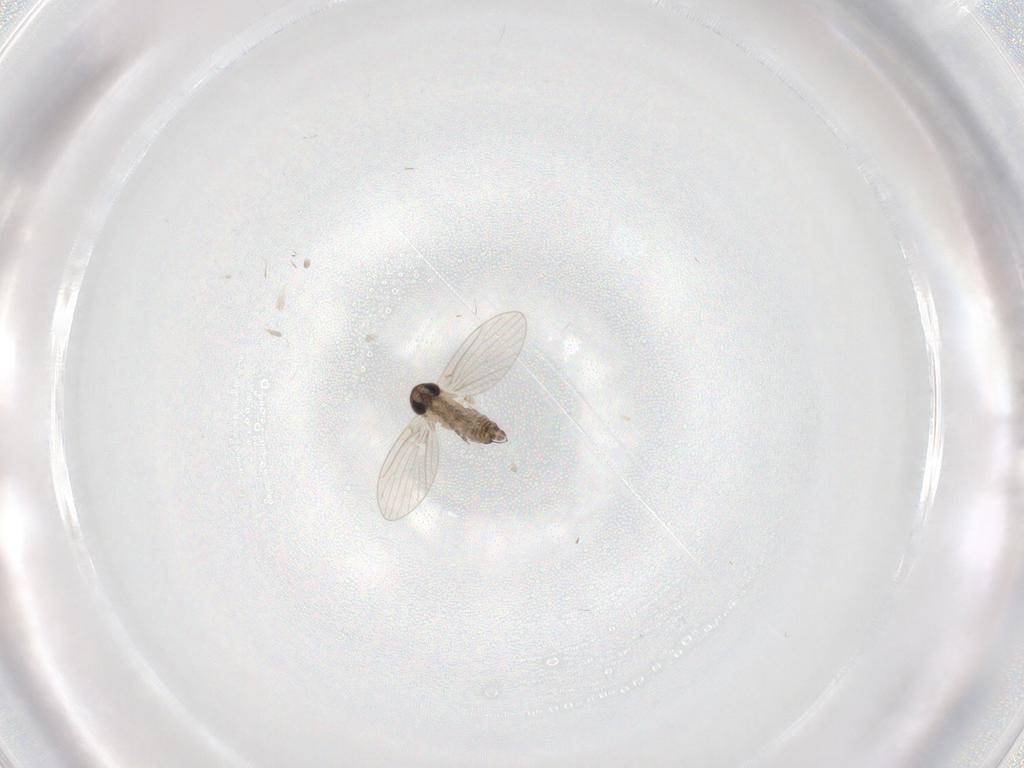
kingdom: Animalia
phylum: Arthropoda
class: Insecta
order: Diptera
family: Psychodidae
